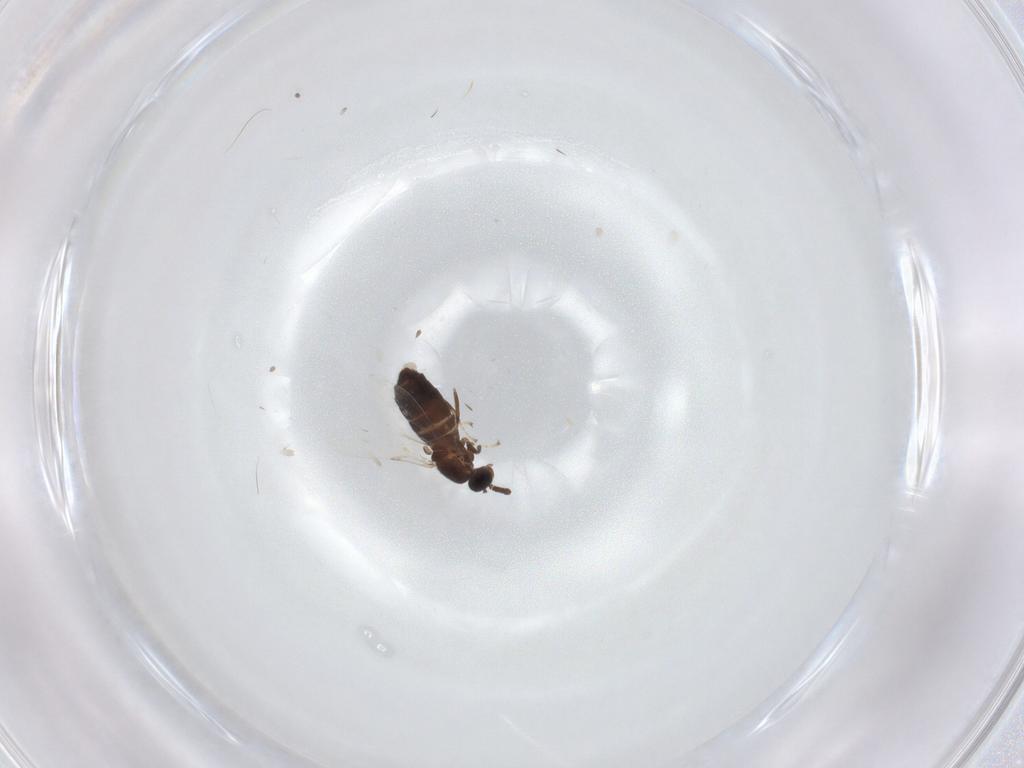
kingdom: Animalia
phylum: Arthropoda
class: Insecta
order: Diptera
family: Scatopsidae
